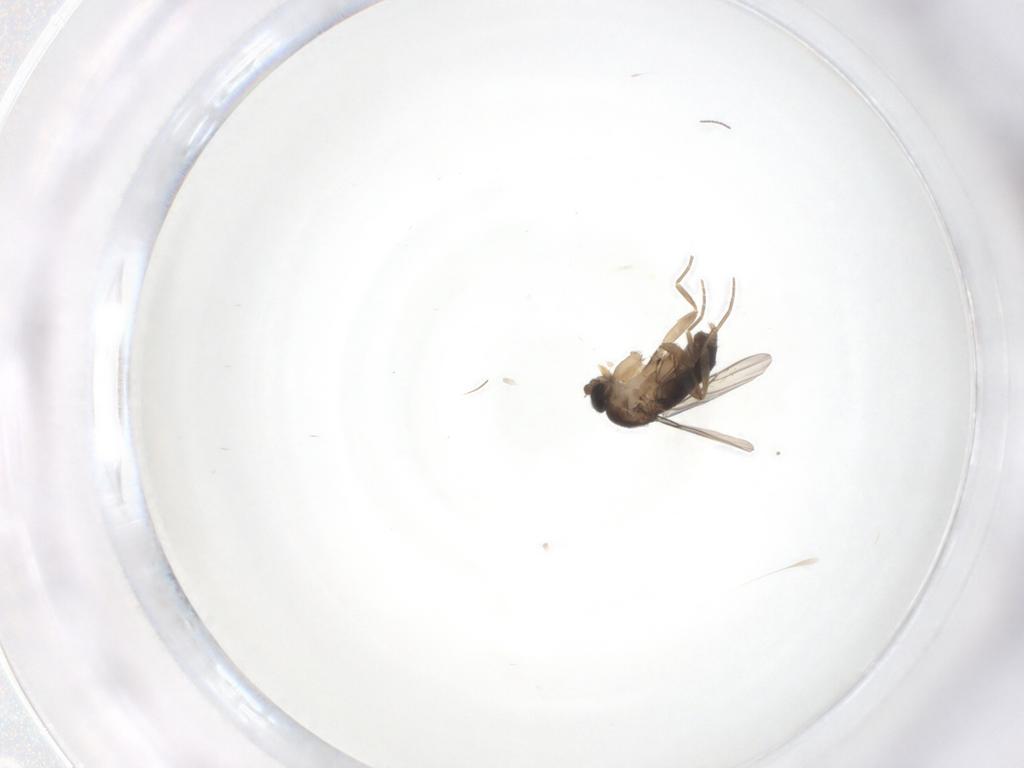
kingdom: Animalia
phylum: Arthropoda
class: Insecta
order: Diptera
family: Phoridae
